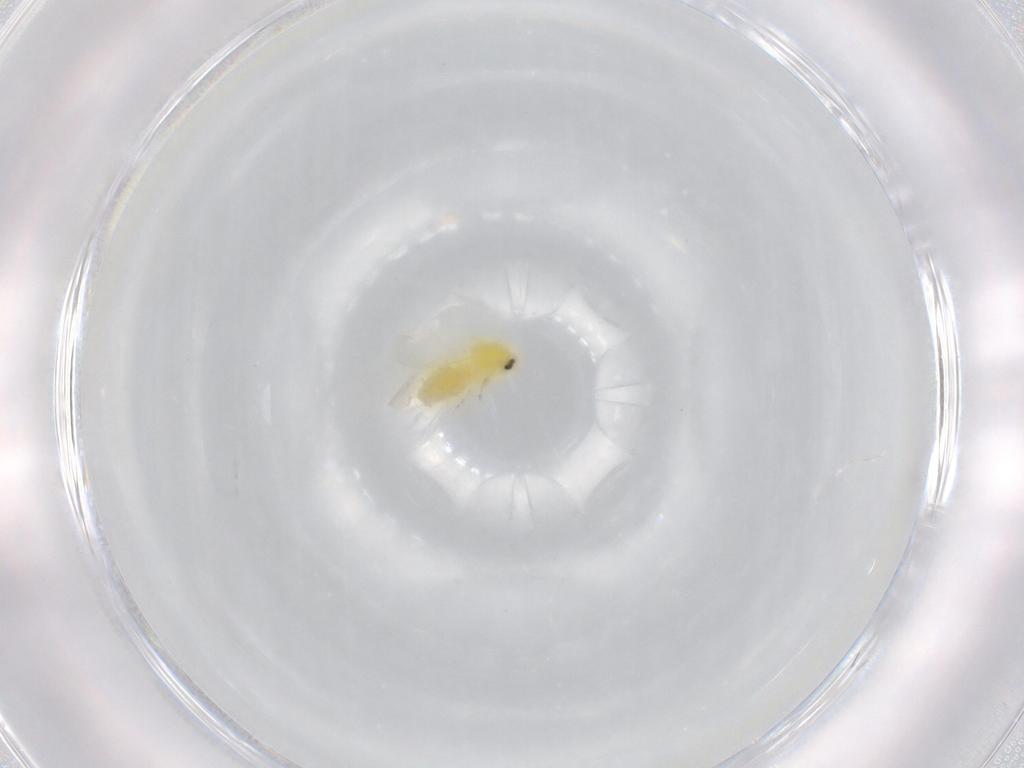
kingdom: Animalia
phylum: Arthropoda
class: Insecta
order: Hemiptera
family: Aleyrodidae
